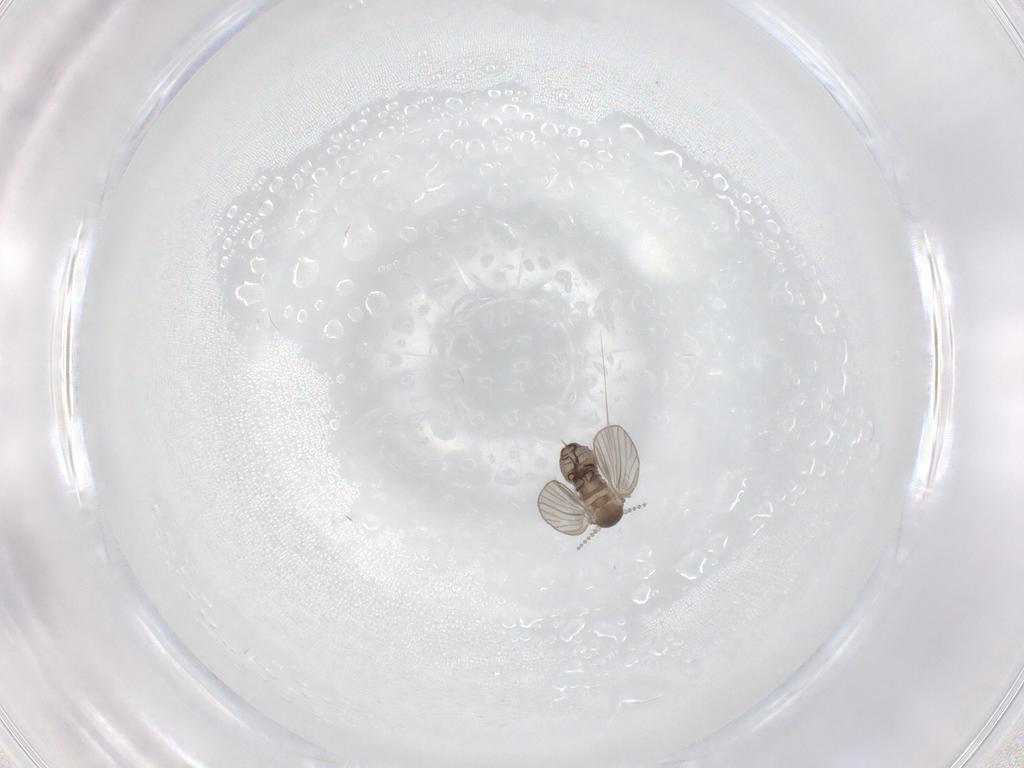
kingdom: Animalia
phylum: Arthropoda
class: Insecta
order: Diptera
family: Psychodidae
